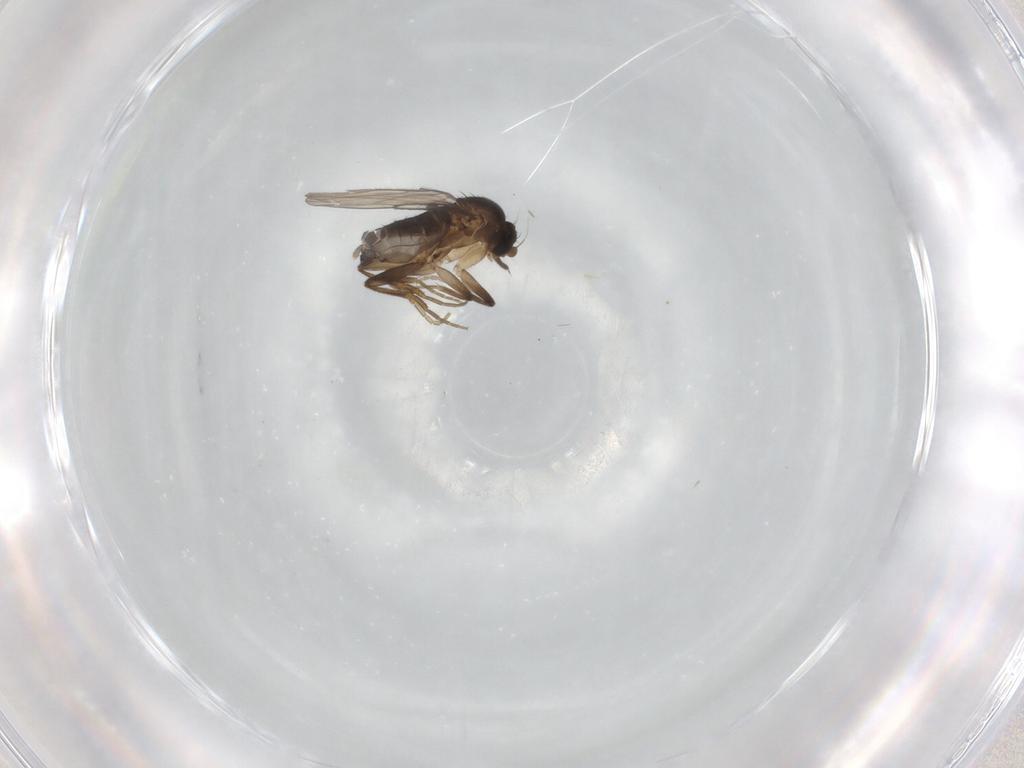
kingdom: Animalia
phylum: Arthropoda
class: Insecta
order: Diptera
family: Phoridae
